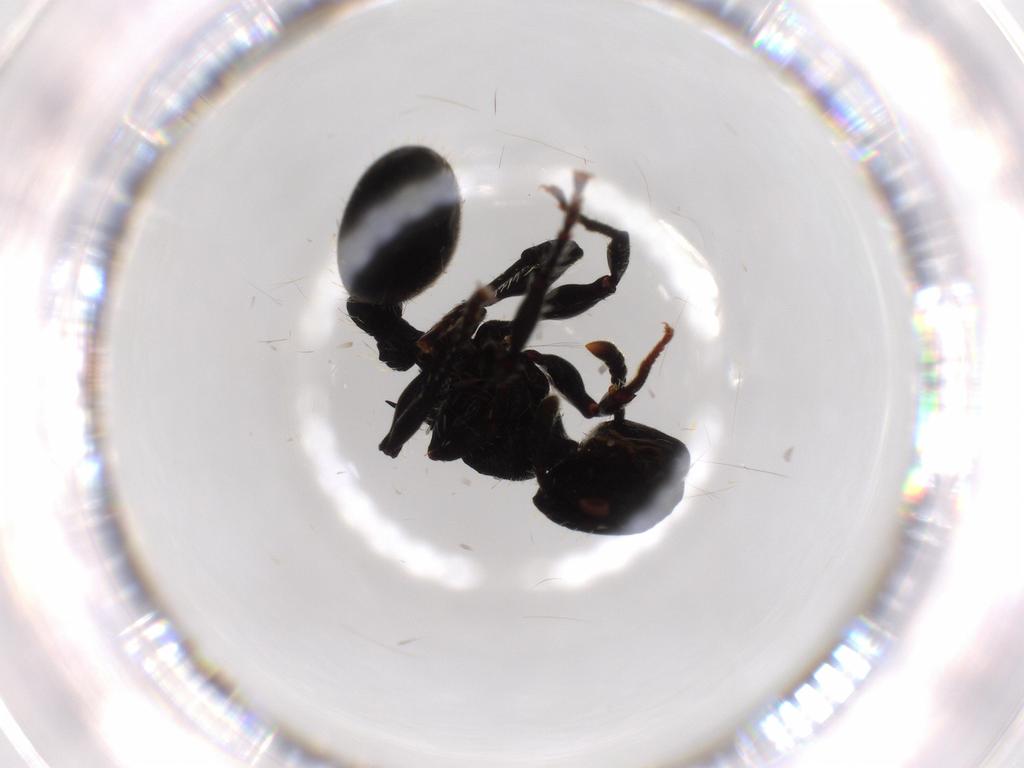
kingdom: Animalia
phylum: Arthropoda
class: Insecta
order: Hymenoptera
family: Formicidae
